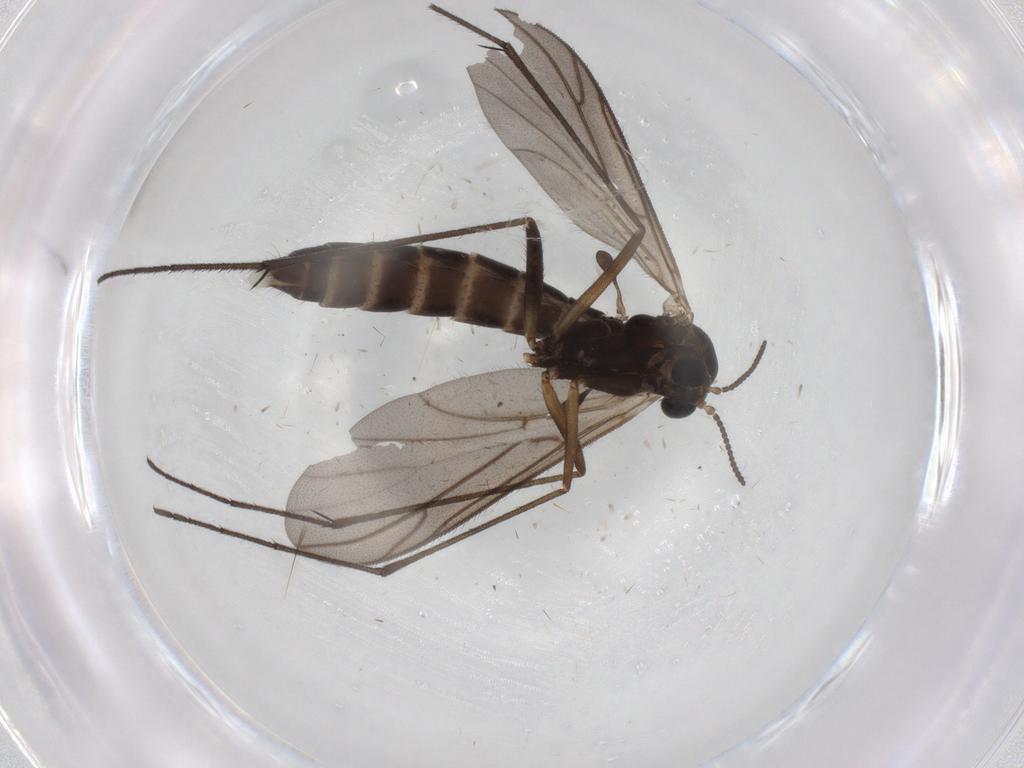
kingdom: Animalia
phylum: Arthropoda
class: Insecta
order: Diptera
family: Ditomyiidae
